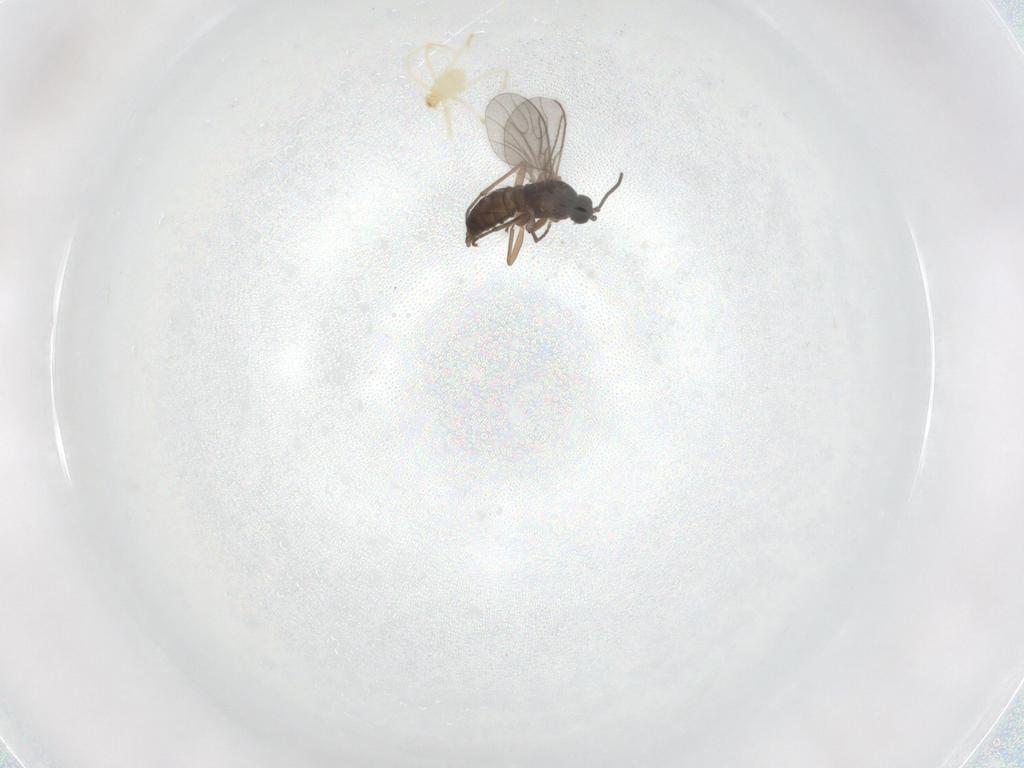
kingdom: Animalia
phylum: Arthropoda
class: Insecta
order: Diptera
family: Sciaridae
